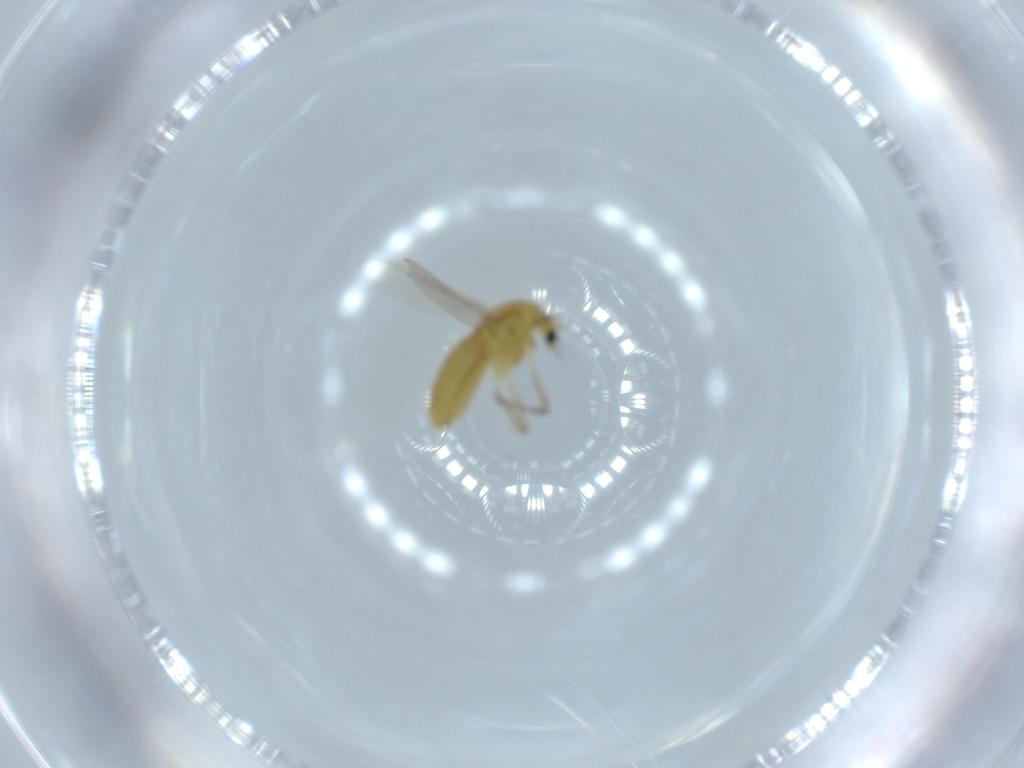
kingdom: Animalia
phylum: Arthropoda
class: Insecta
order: Diptera
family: Chironomidae
